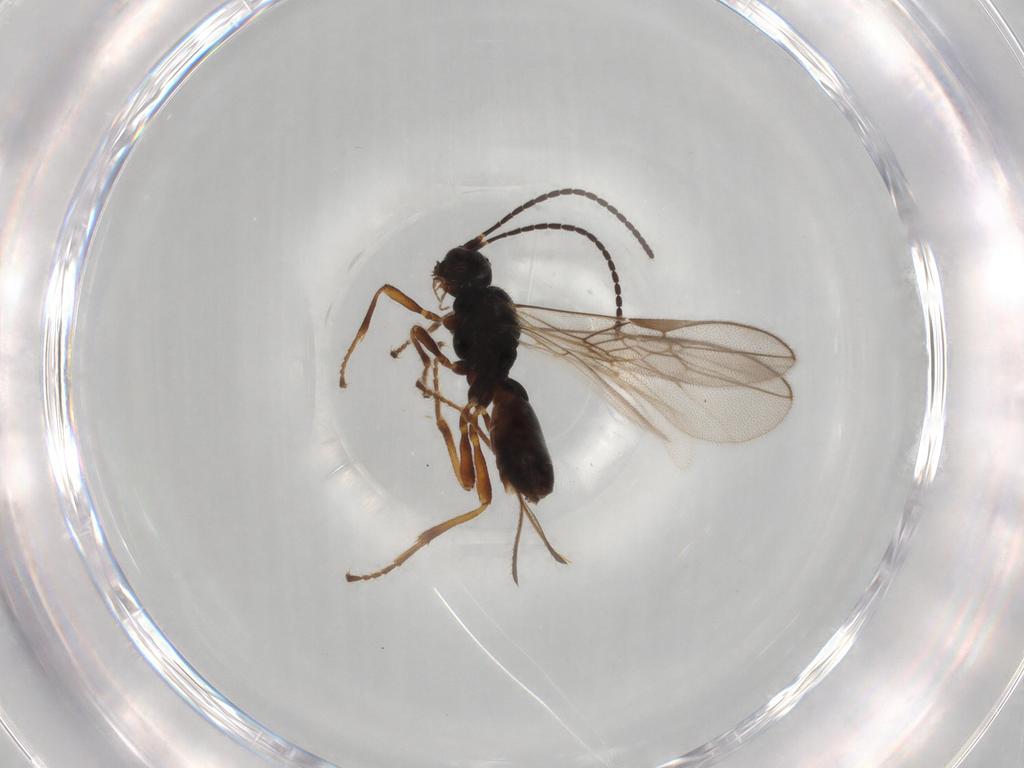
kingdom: Animalia
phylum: Arthropoda
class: Insecta
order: Hymenoptera
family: Braconidae
